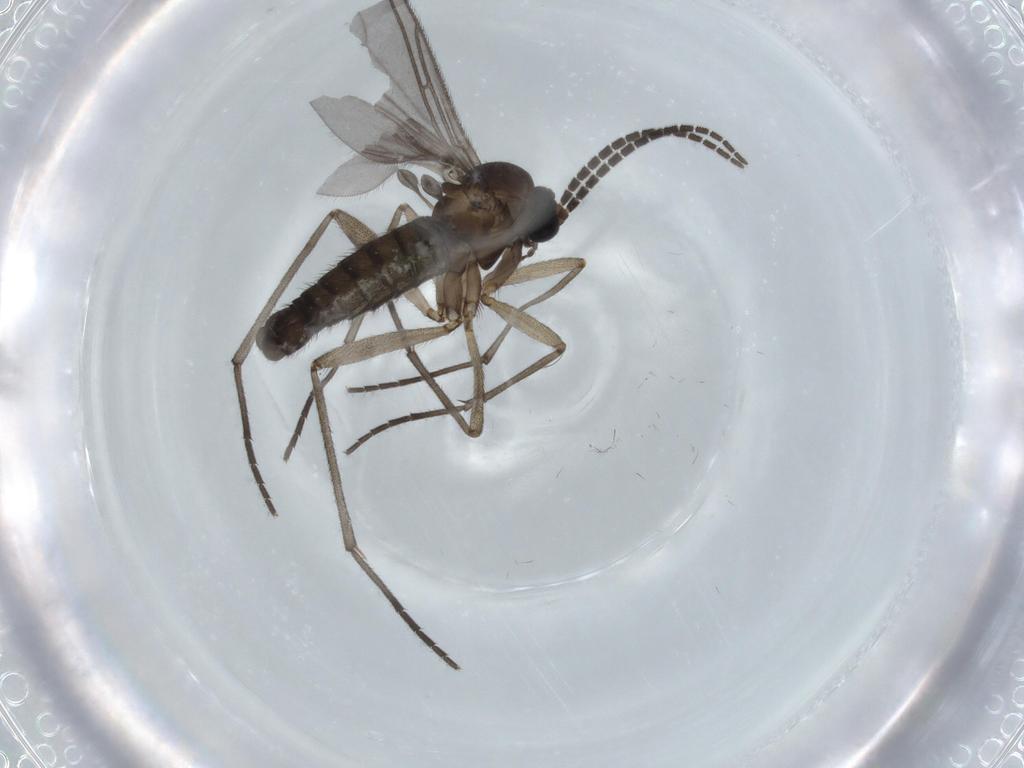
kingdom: Animalia
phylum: Arthropoda
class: Insecta
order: Diptera
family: Sciaridae
